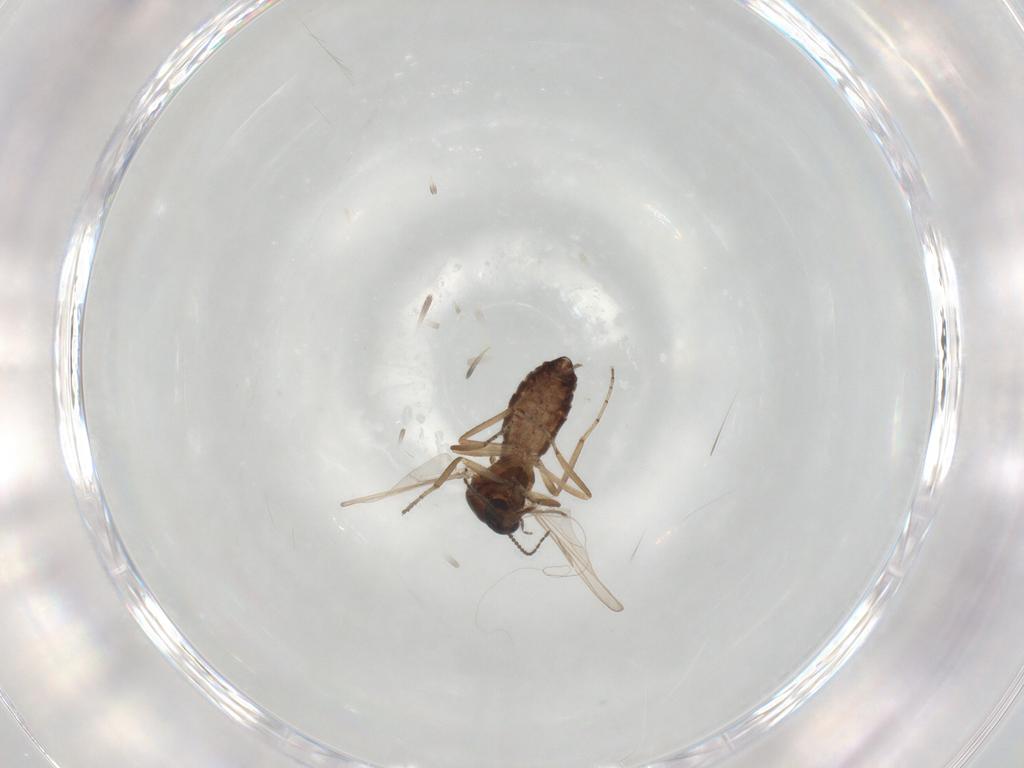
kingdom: Animalia
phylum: Arthropoda
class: Insecta
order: Diptera
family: Ceratopogonidae
